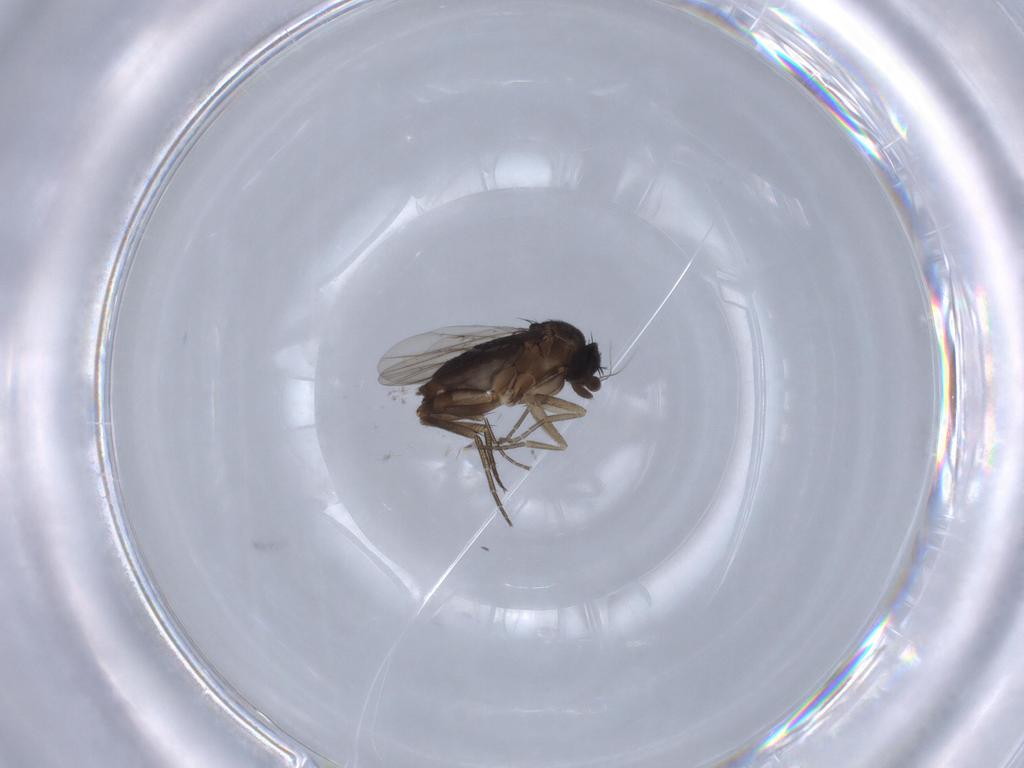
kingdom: Animalia
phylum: Arthropoda
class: Insecta
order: Diptera
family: Phoridae
